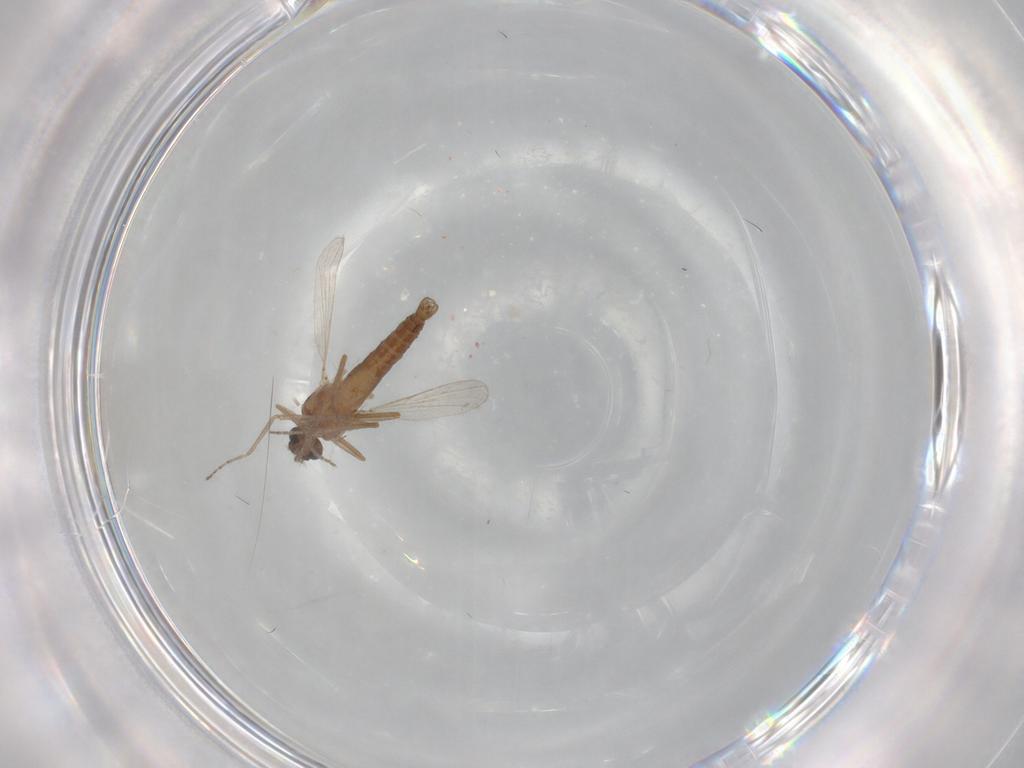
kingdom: Animalia
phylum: Arthropoda
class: Insecta
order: Diptera
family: Ceratopogonidae
